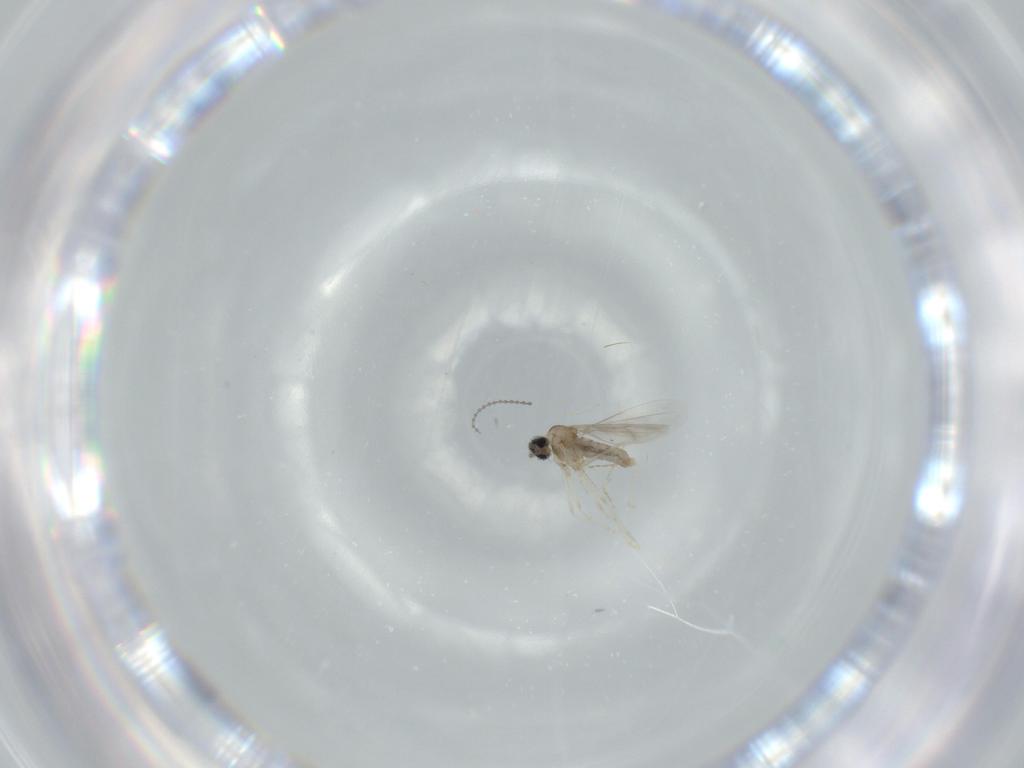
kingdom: Animalia
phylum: Arthropoda
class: Insecta
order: Diptera
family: Cecidomyiidae
